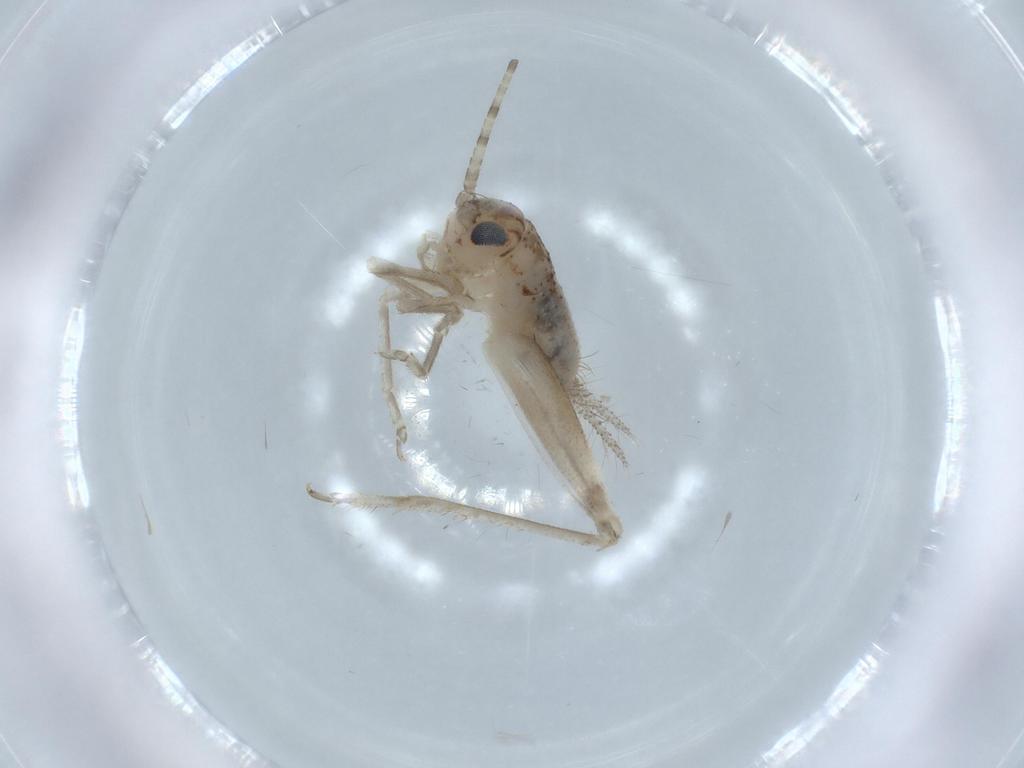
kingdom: Animalia
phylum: Arthropoda
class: Insecta
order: Orthoptera
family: Trigonidiidae
